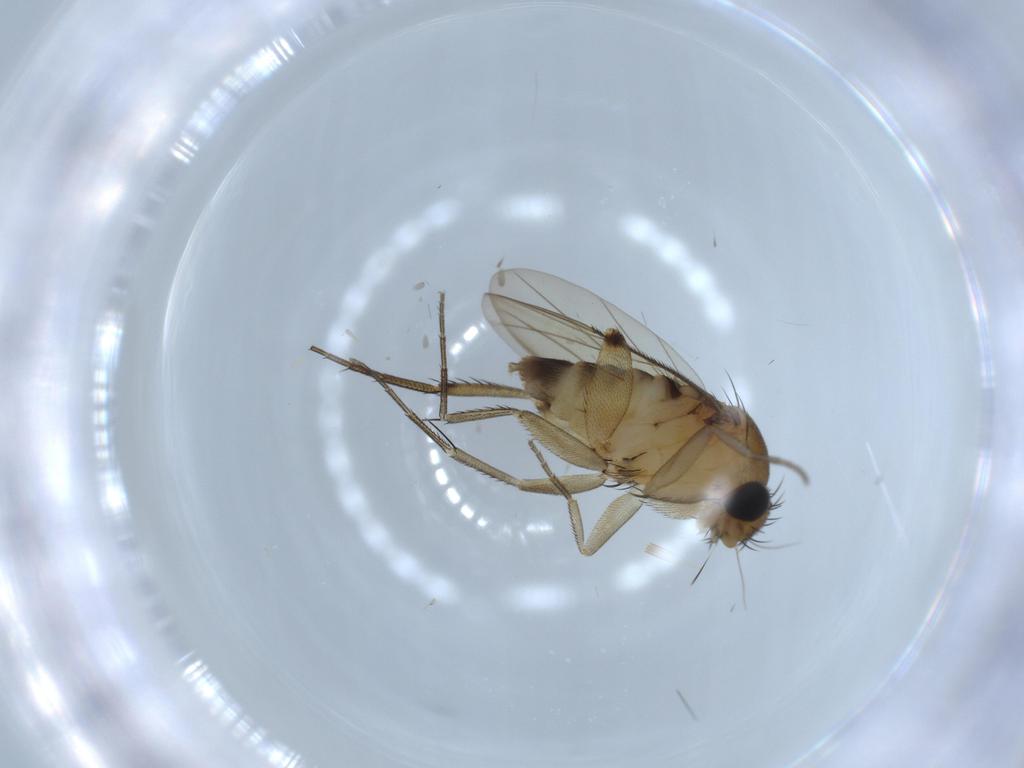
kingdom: Animalia
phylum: Arthropoda
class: Insecta
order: Diptera
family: Phoridae
